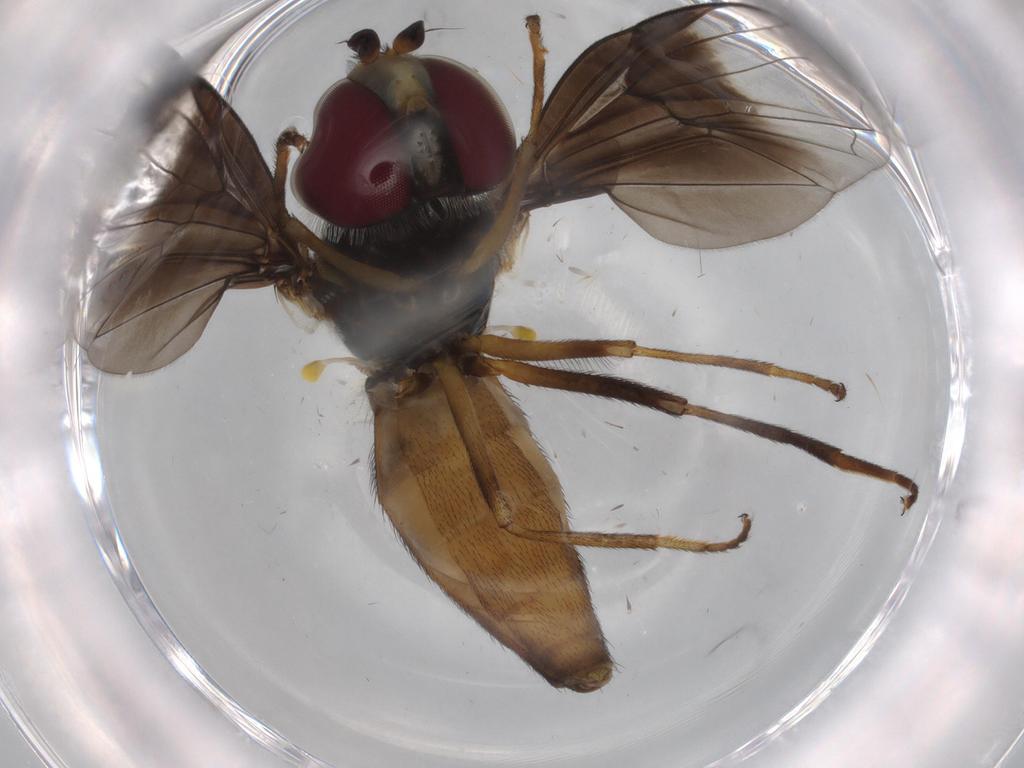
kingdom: Animalia
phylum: Arthropoda
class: Insecta
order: Diptera
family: Syrphidae
